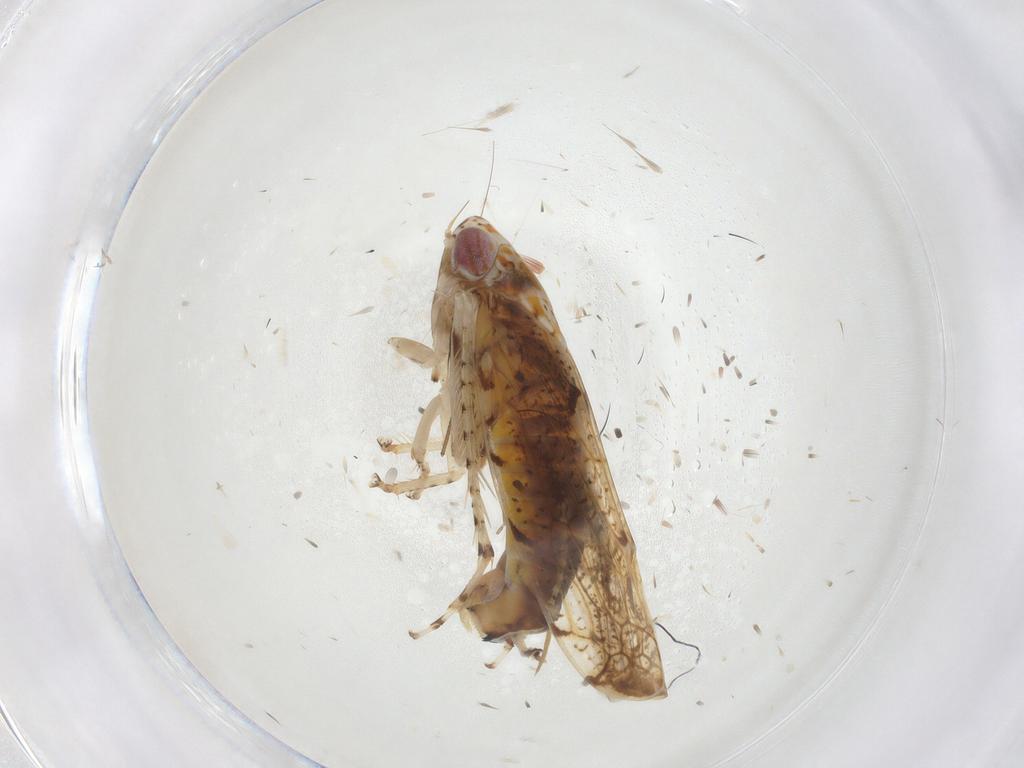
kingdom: Animalia
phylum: Arthropoda
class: Insecta
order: Hemiptera
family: Cicadellidae
